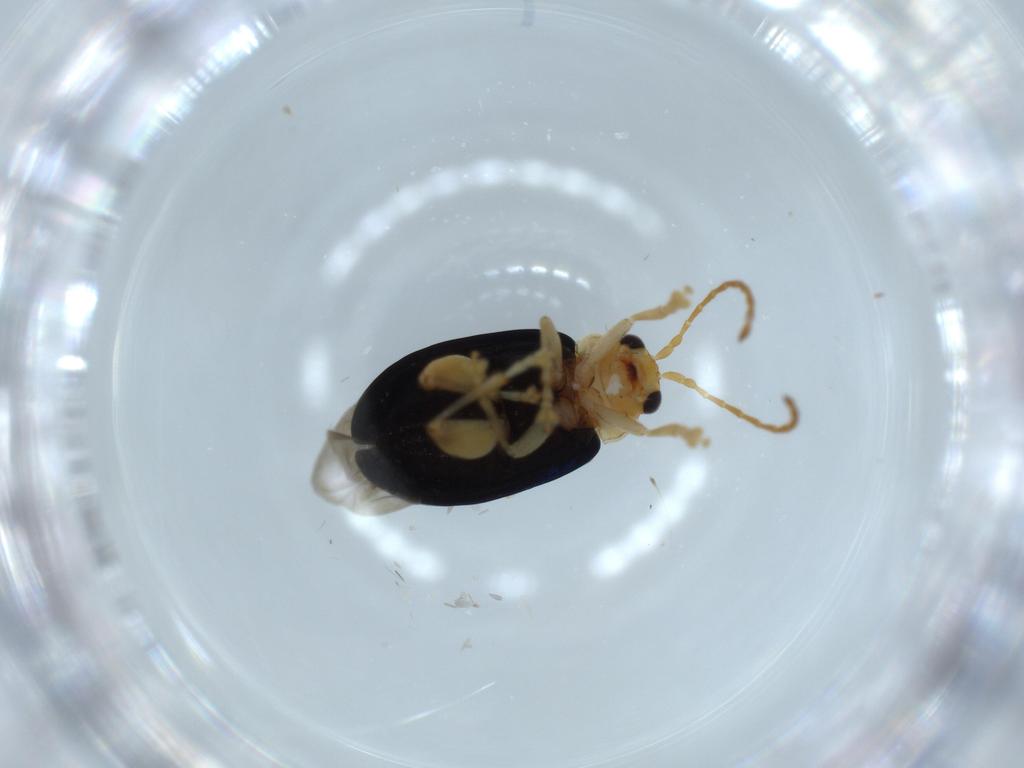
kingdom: Animalia
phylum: Arthropoda
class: Insecta
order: Coleoptera
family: Chrysomelidae
